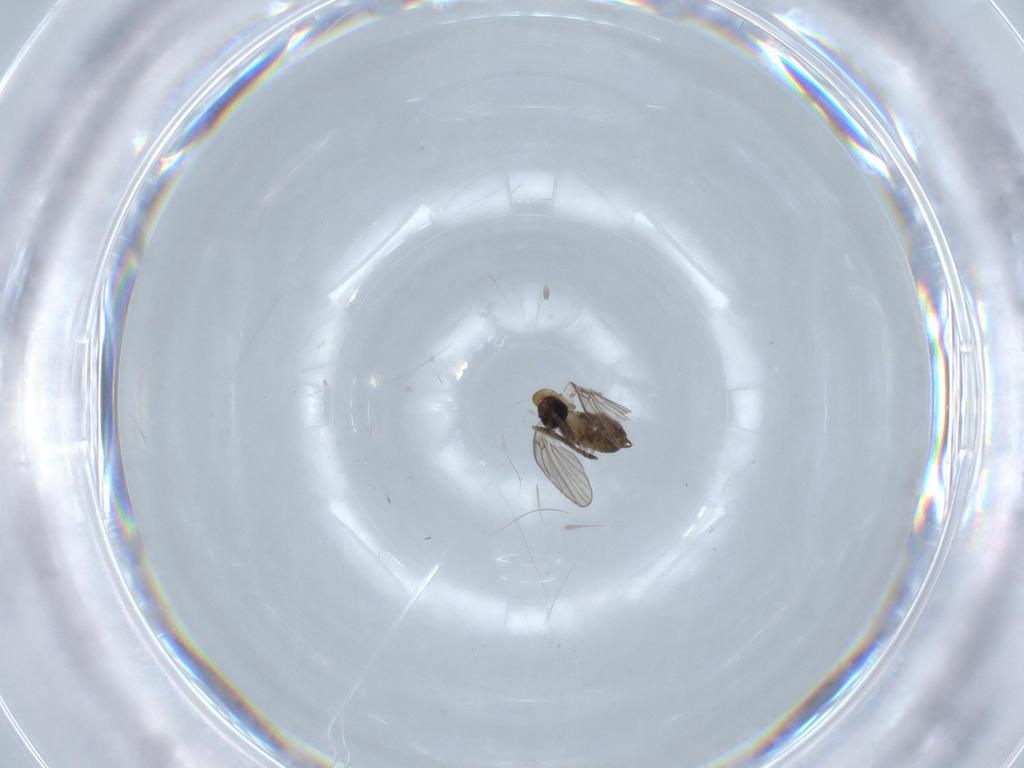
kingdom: Animalia
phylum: Arthropoda
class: Insecta
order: Diptera
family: Psychodidae
